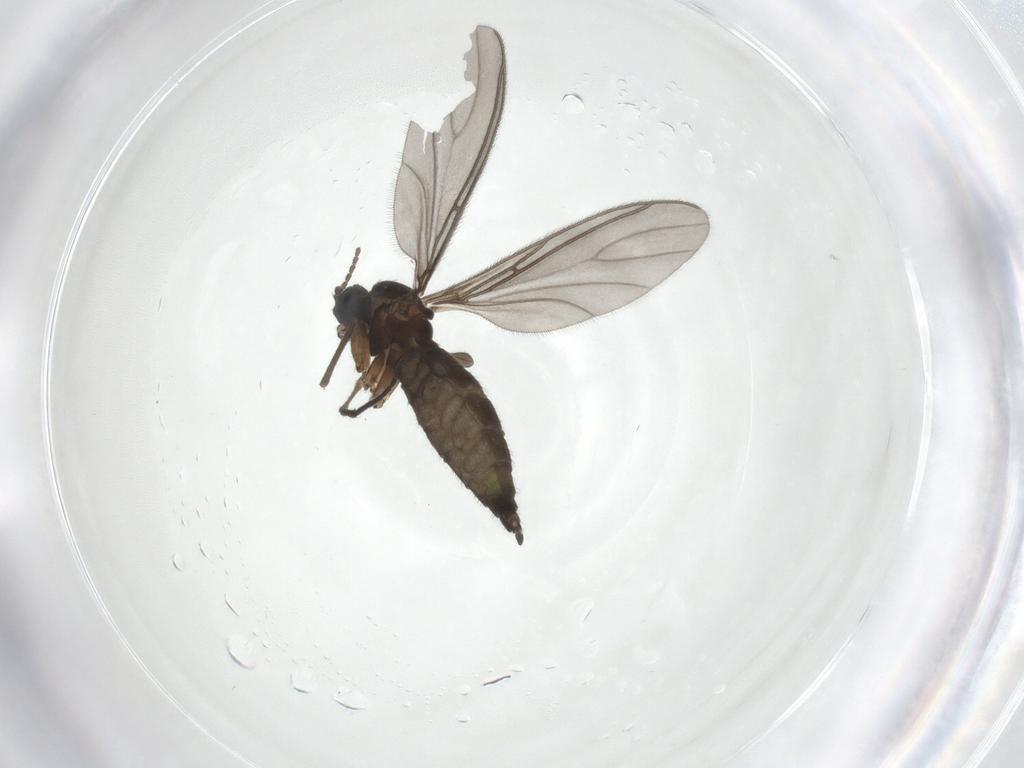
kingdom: Animalia
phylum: Arthropoda
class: Insecta
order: Diptera
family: Sciaridae
